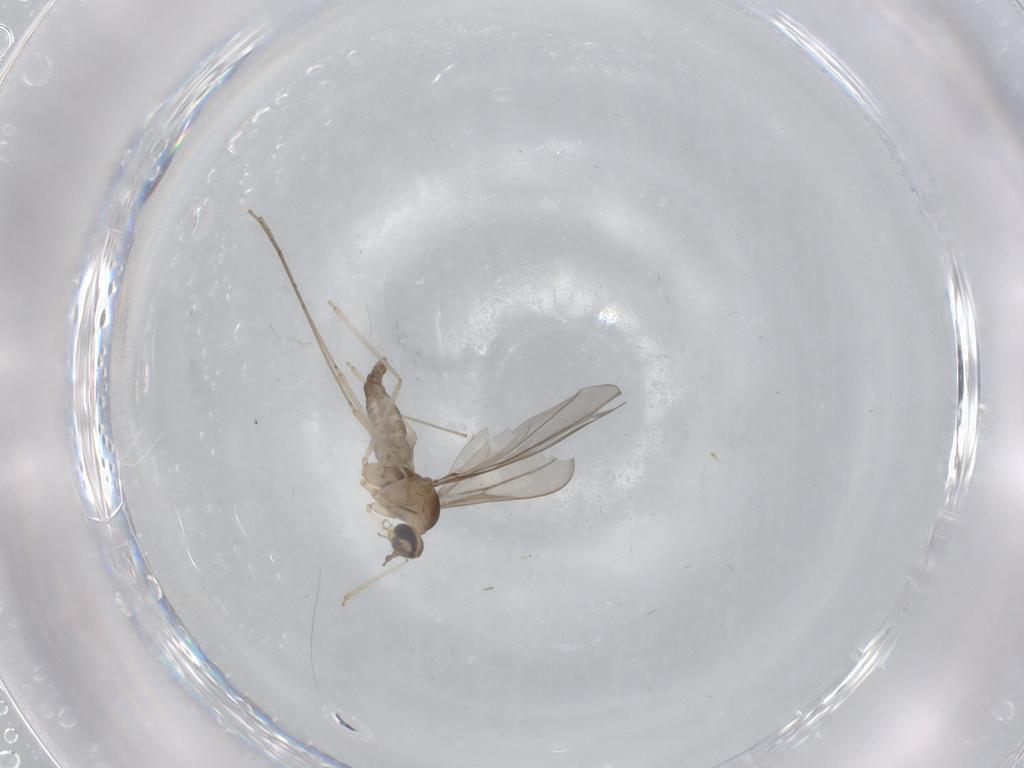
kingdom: Animalia
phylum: Arthropoda
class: Insecta
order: Diptera
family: Cecidomyiidae
